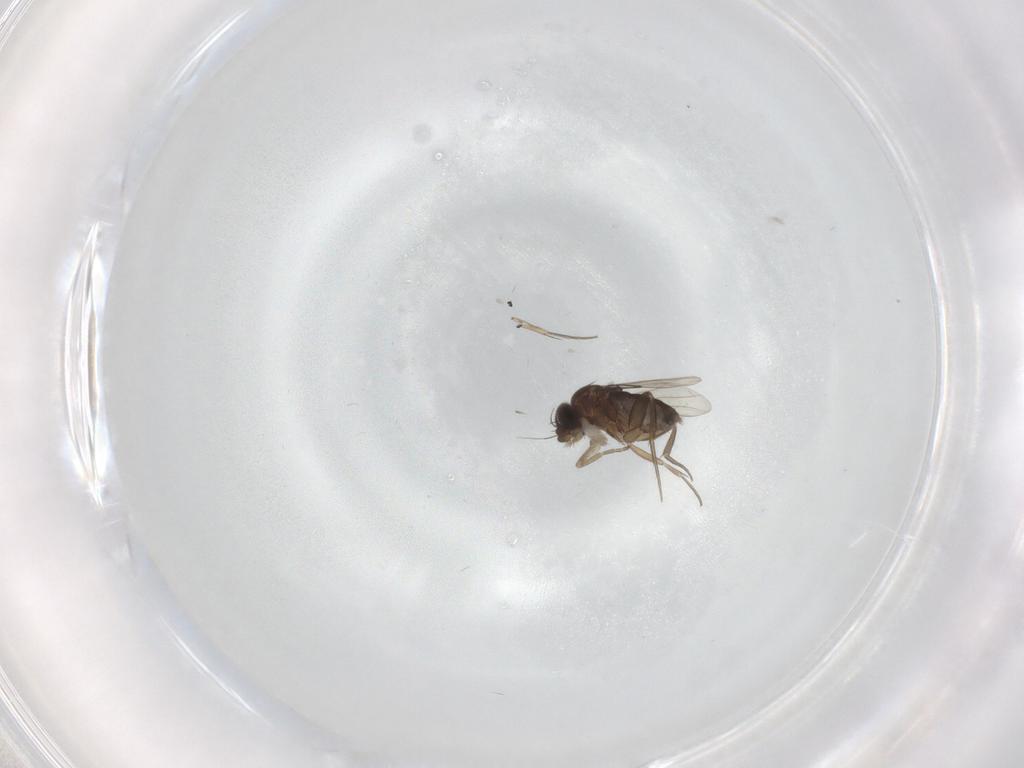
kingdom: Animalia
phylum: Arthropoda
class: Insecta
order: Diptera
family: Phoridae
